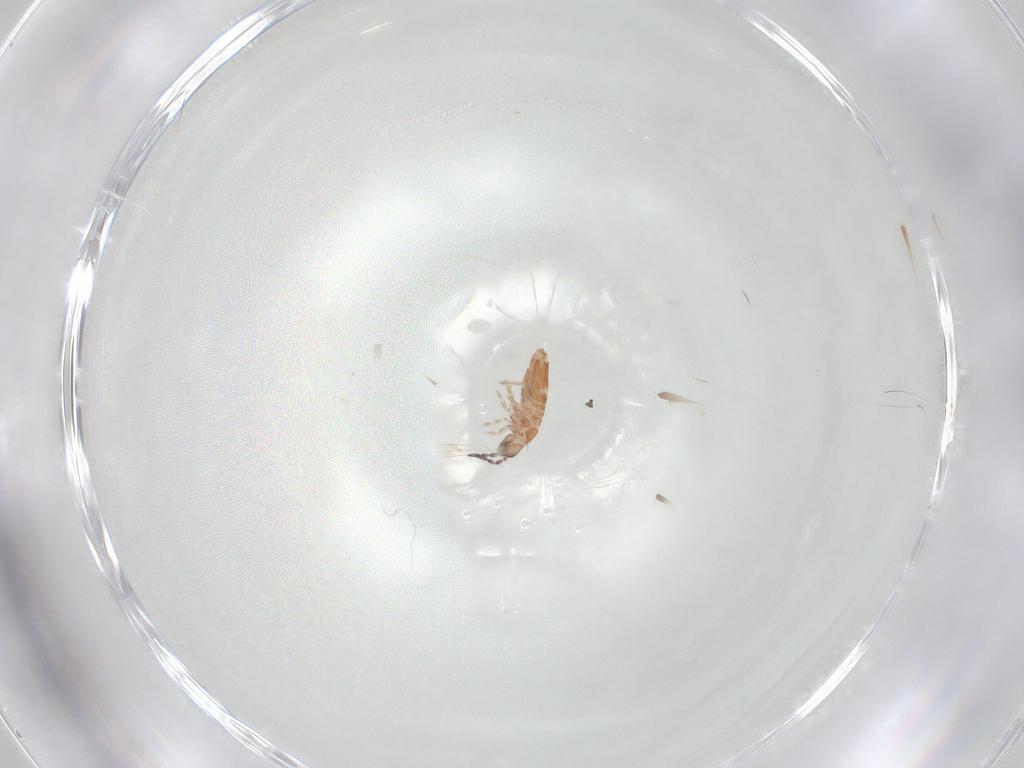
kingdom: Animalia
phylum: Arthropoda
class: Collembola
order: Entomobryomorpha
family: Entomobryidae
